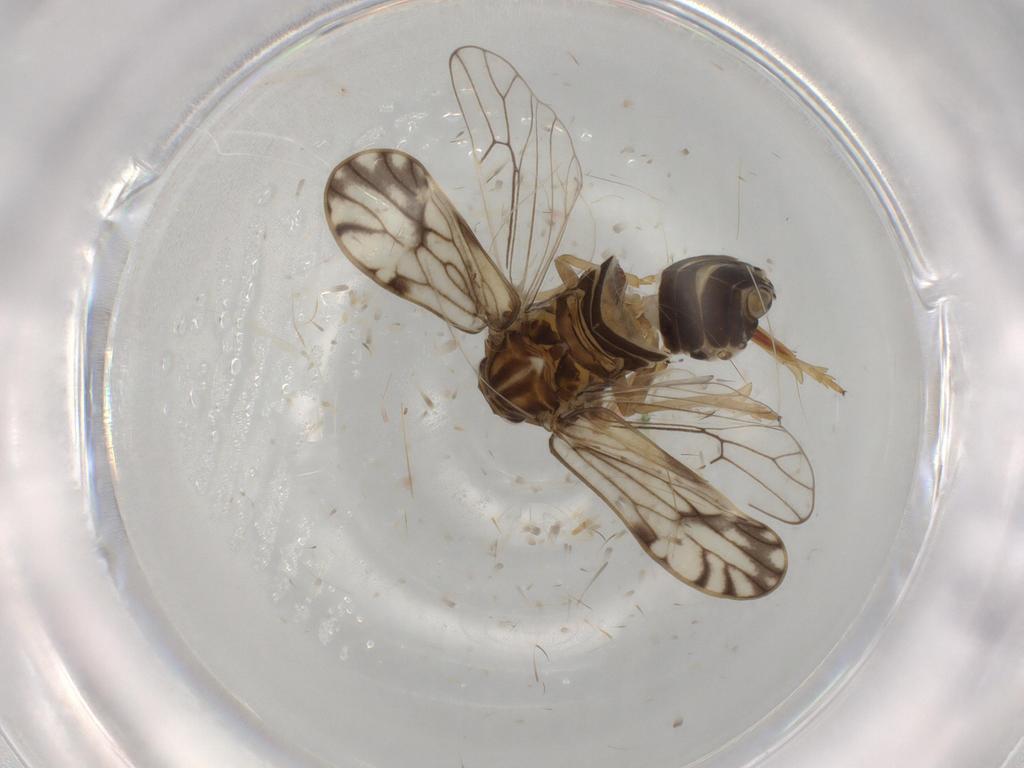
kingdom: Animalia
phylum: Arthropoda
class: Insecta
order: Hemiptera
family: Delphacidae
